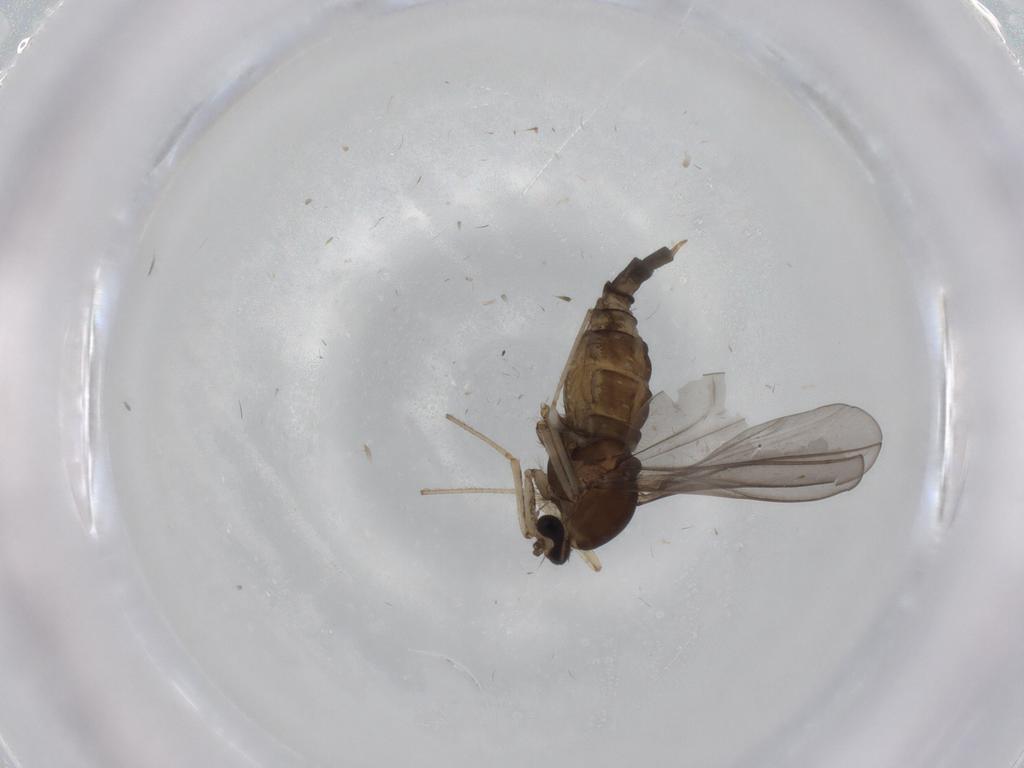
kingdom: Animalia
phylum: Arthropoda
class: Insecta
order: Diptera
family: Cecidomyiidae
